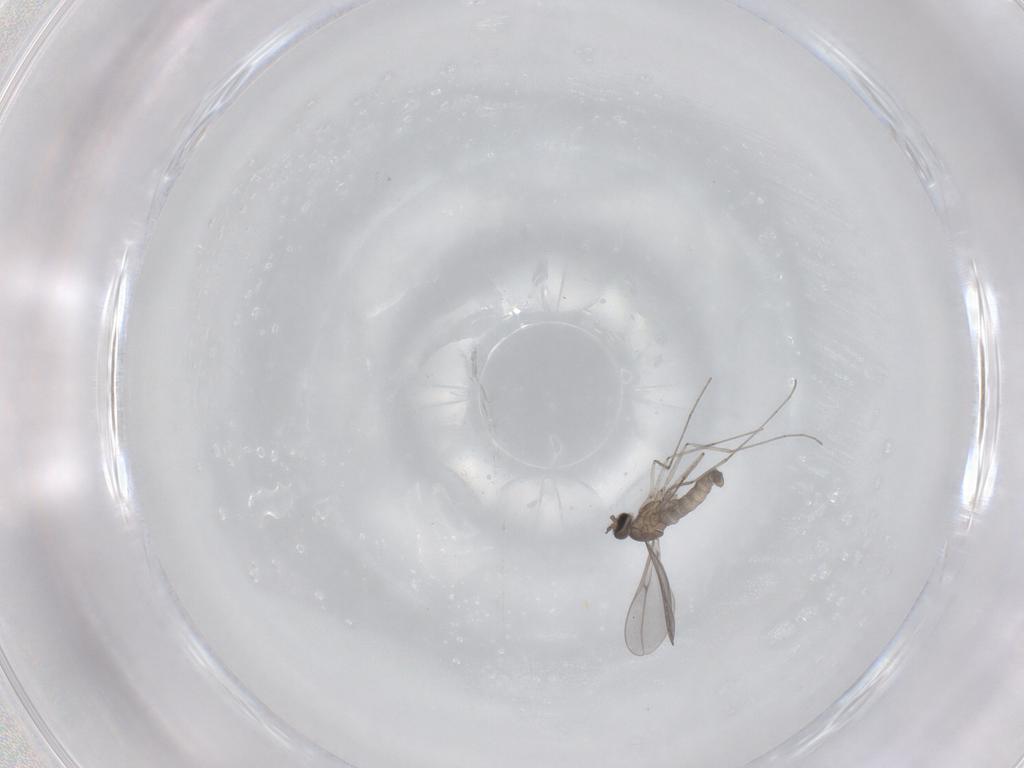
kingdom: Animalia
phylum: Arthropoda
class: Insecta
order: Diptera
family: Cecidomyiidae
